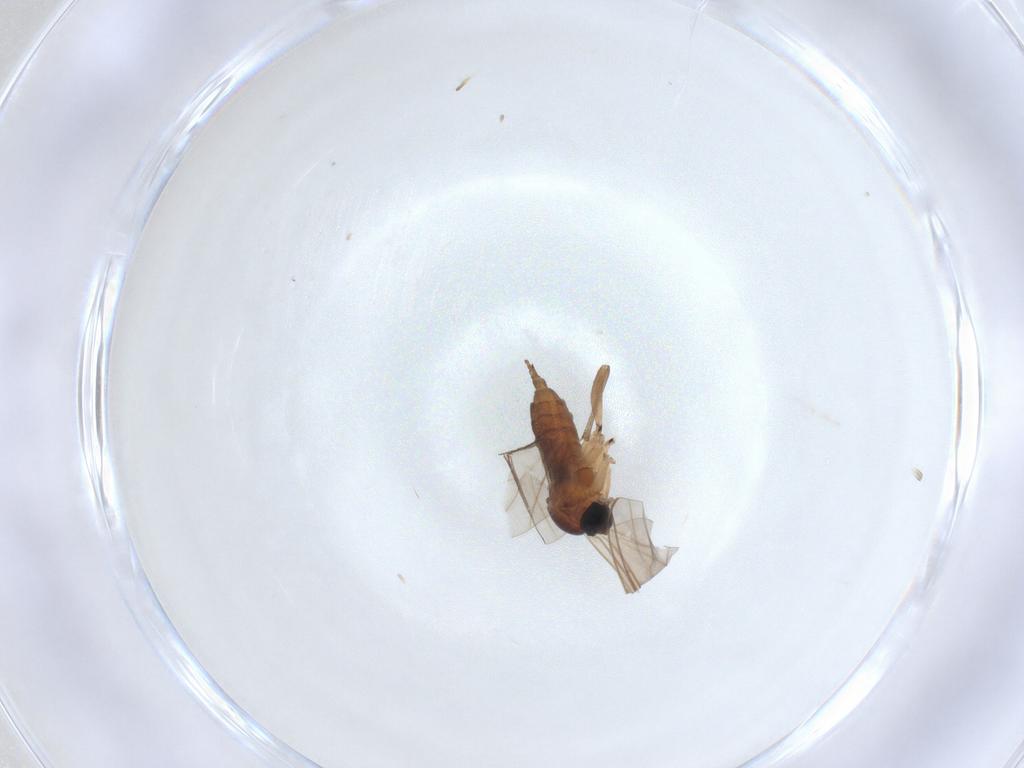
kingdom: Animalia
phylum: Arthropoda
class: Insecta
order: Diptera
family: Sciaridae
